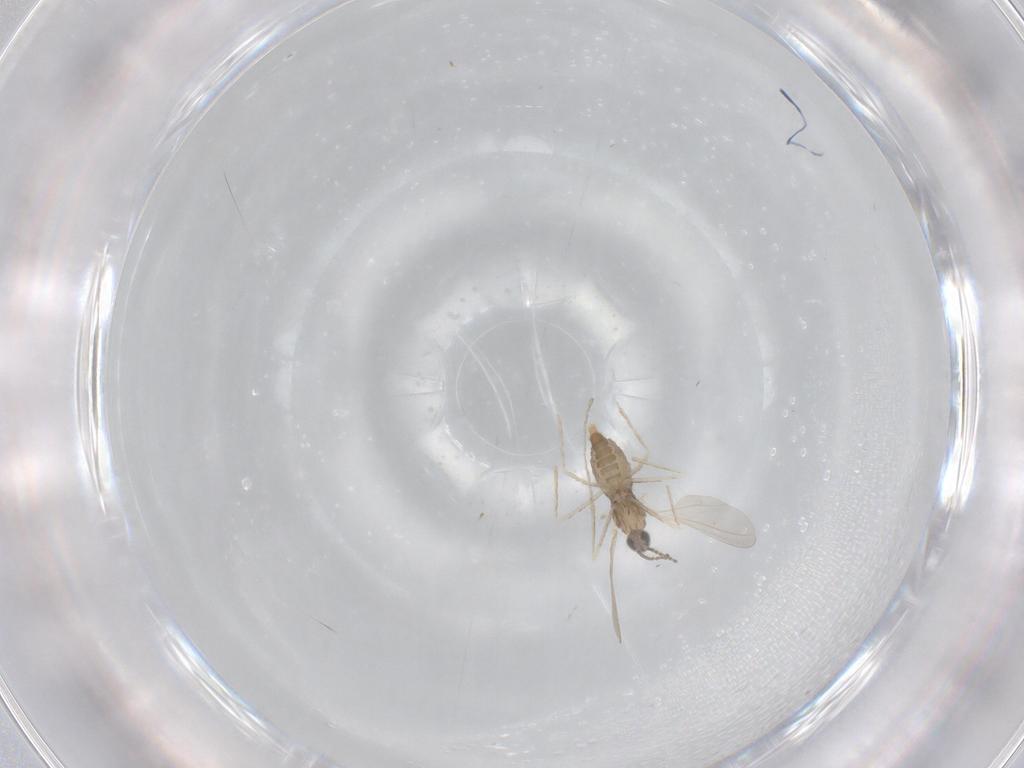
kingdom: Animalia
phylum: Arthropoda
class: Insecta
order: Diptera
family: Cecidomyiidae
